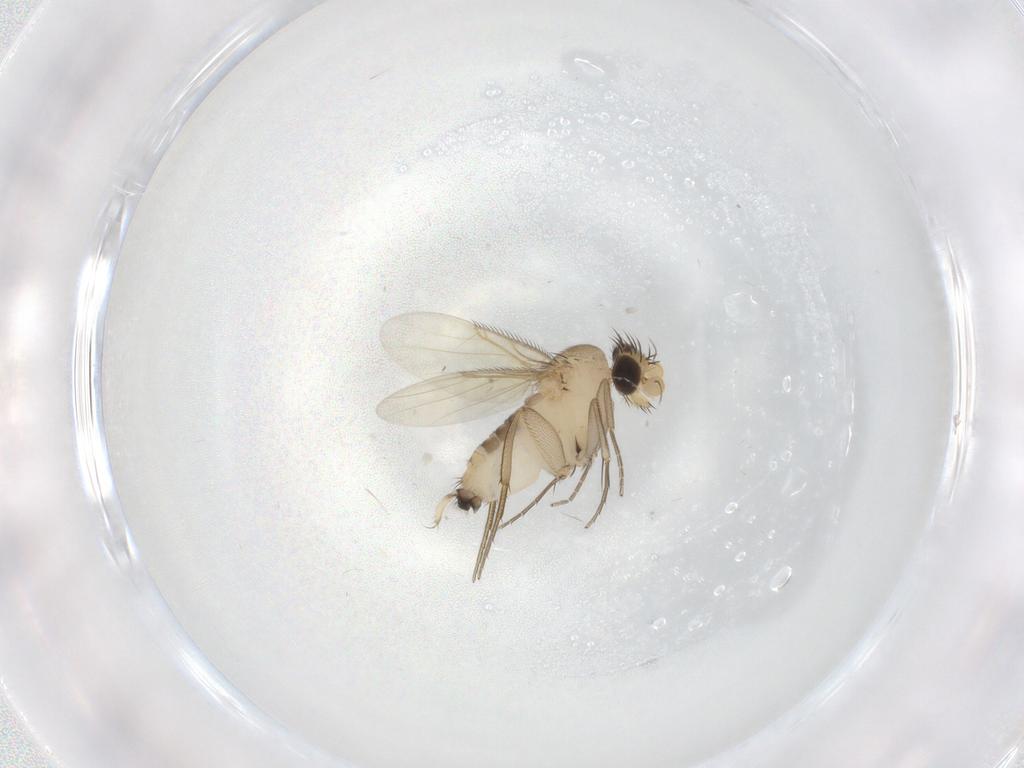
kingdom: Animalia
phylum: Arthropoda
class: Insecta
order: Diptera
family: Phoridae
